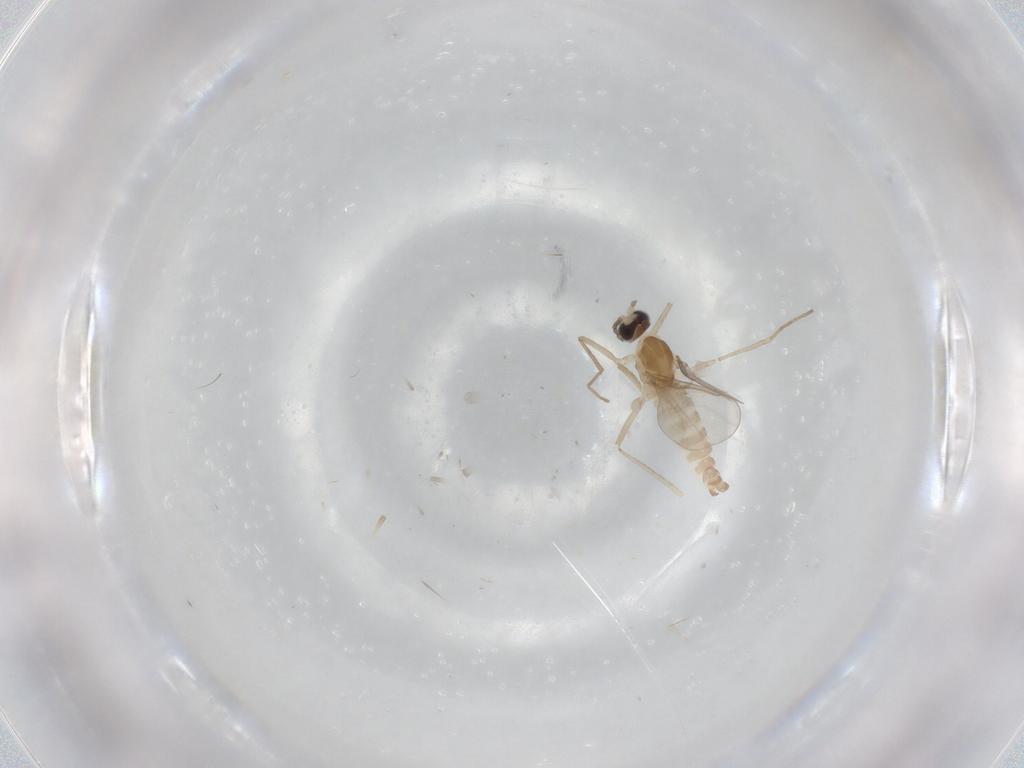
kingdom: Animalia
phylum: Arthropoda
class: Insecta
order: Diptera
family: Cecidomyiidae
